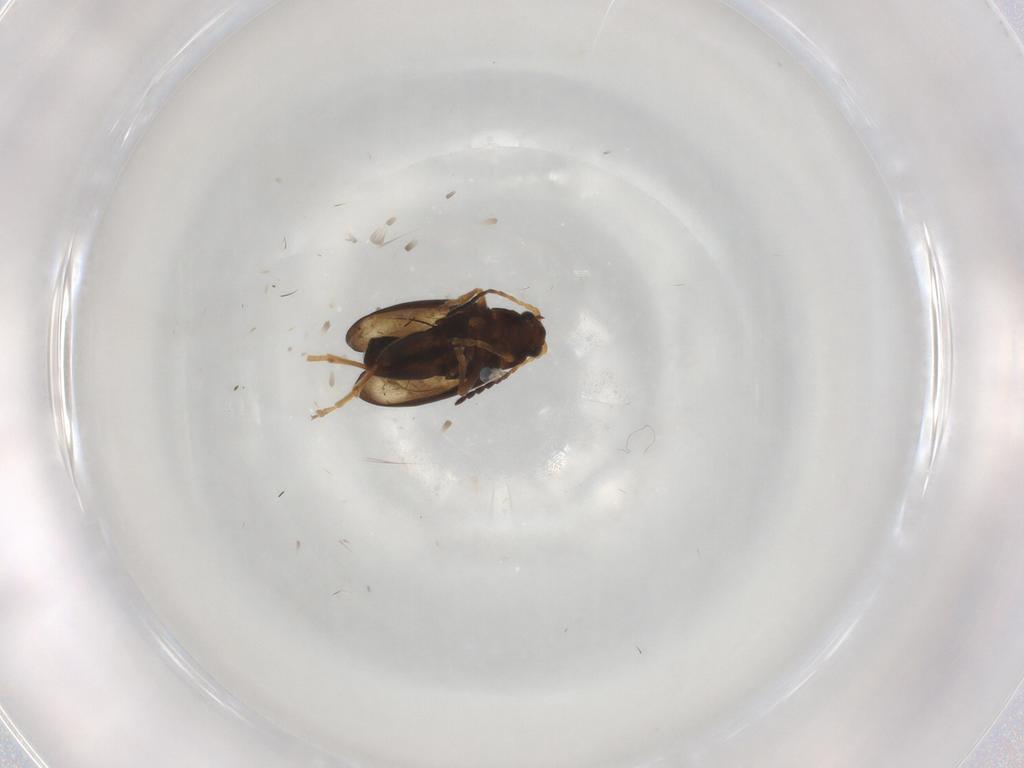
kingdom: Animalia
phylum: Arthropoda
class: Insecta
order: Coleoptera
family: Chrysomelidae
